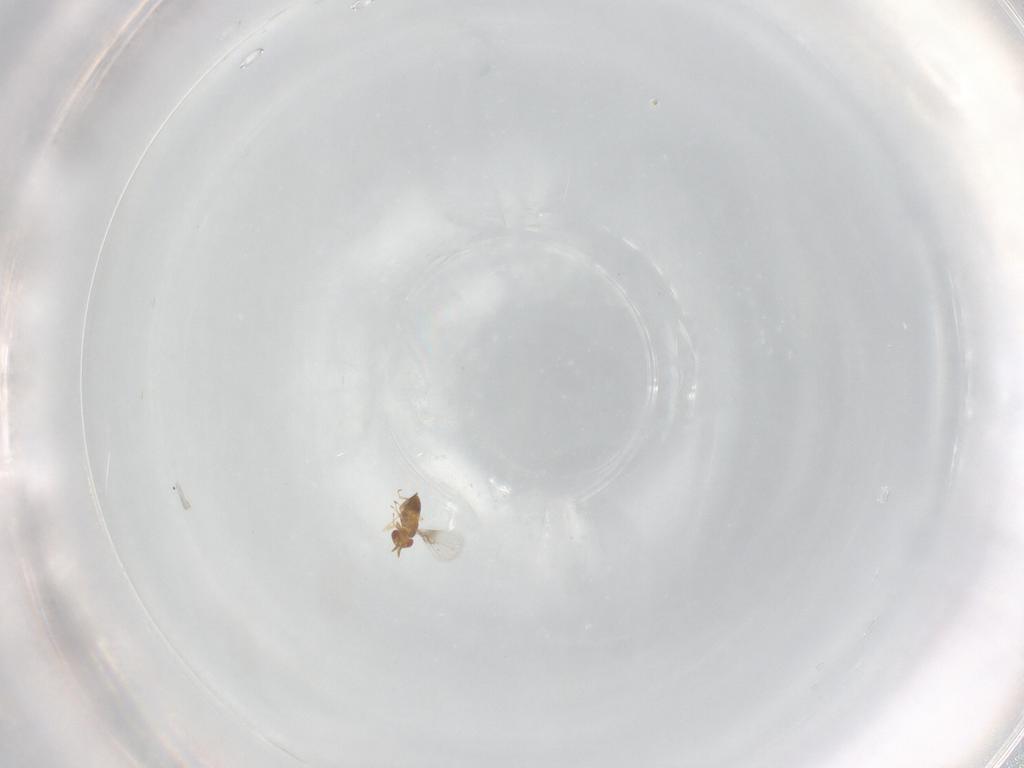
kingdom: Animalia
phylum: Arthropoda
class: Insecta
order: Hymenoptera
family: Trichogrammatidae
